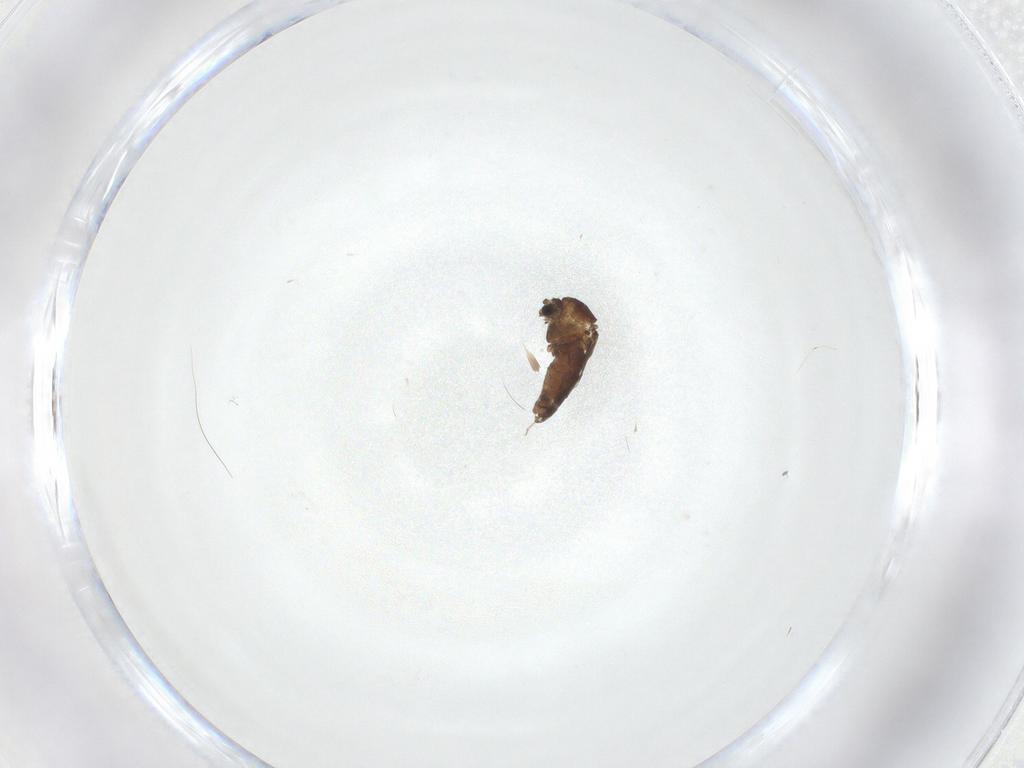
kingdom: Animalia
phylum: Arthropoda
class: Insecta
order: Diptera
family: Chironomidae
